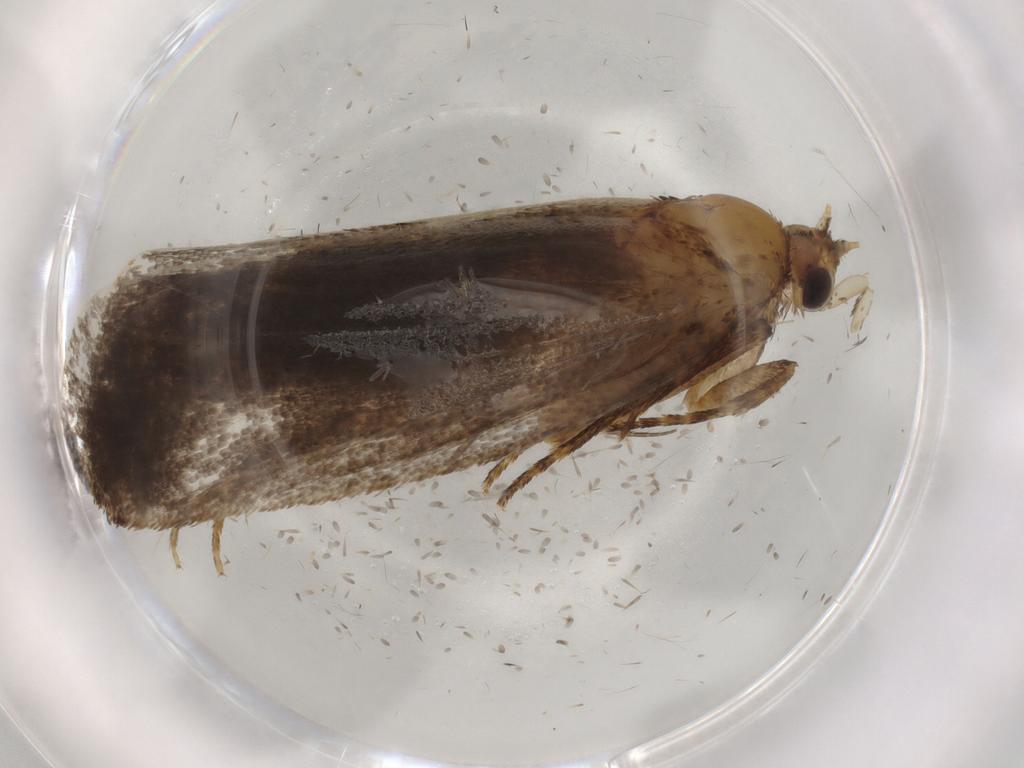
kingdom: Animalia
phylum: Arthropoda
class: Insecta
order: Lepidoptera
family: Tineidae
